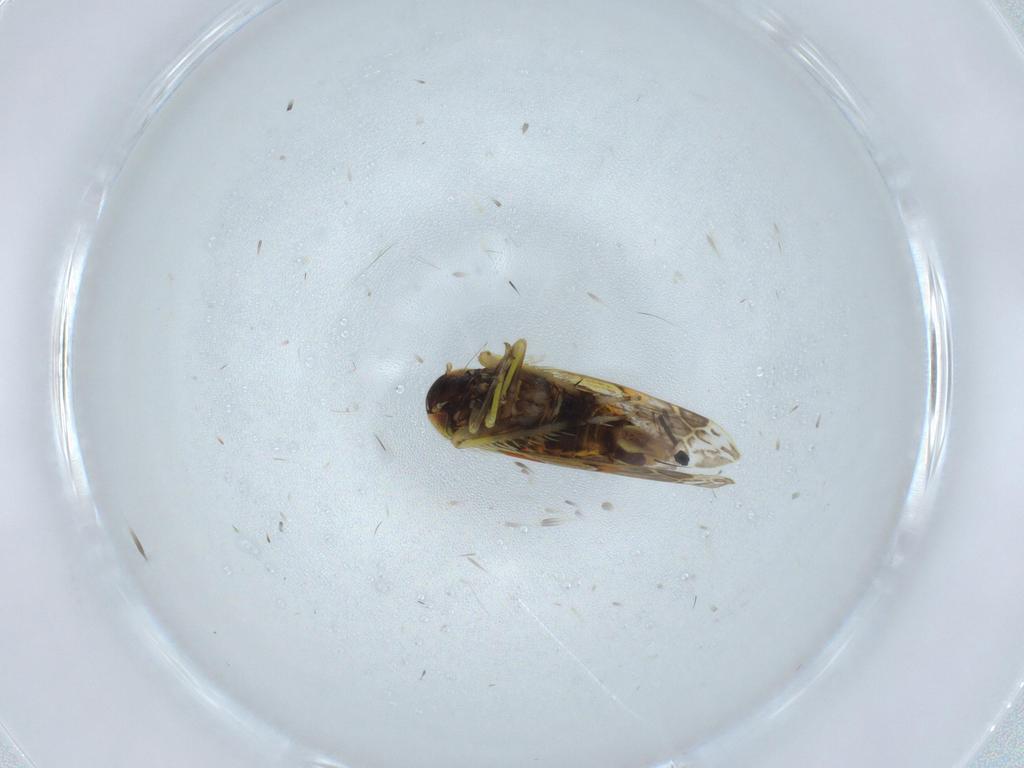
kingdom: Animalia
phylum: Arthropoda
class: Insecta
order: Hemiptera
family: Cicadellidae
